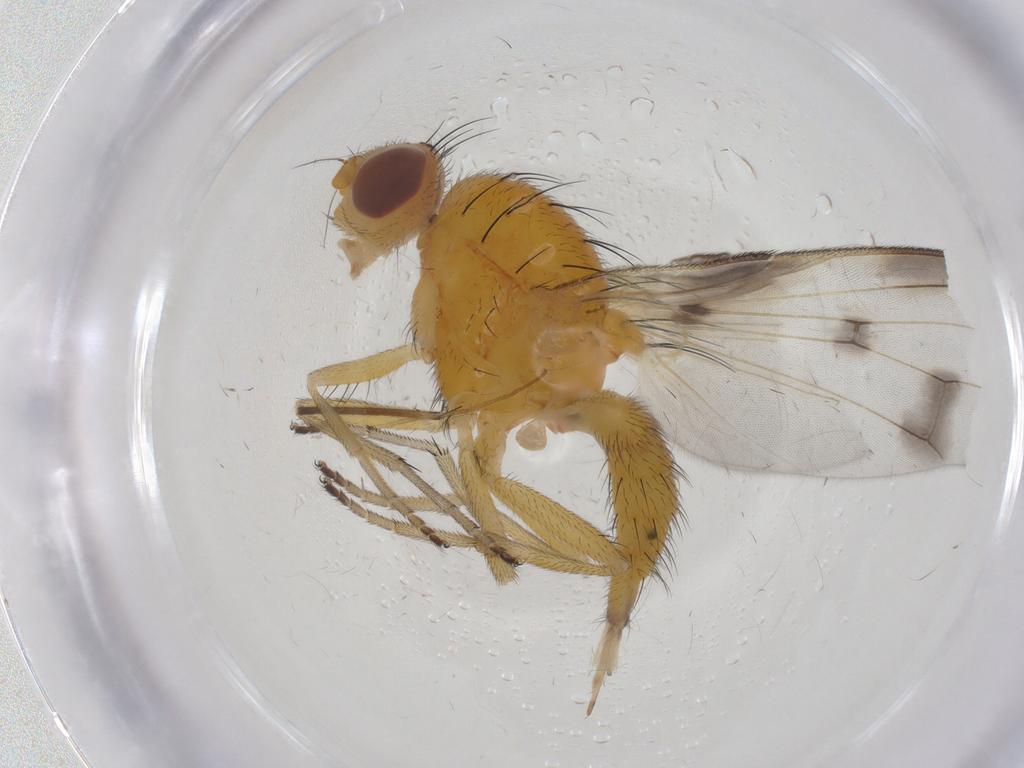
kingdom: Animalia
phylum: Arthropoda
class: Insecta
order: Diptera
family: Pallopteridae
